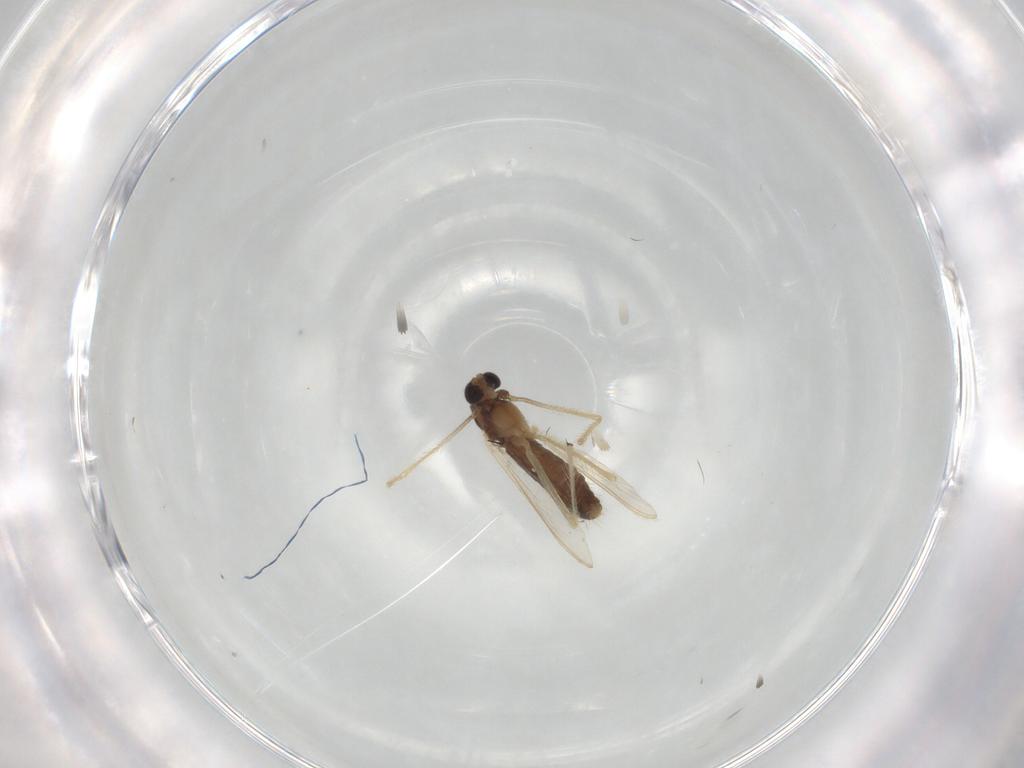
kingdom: Animalia
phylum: Arthropoda
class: Insecta
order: Diptera
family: Chironomidae
